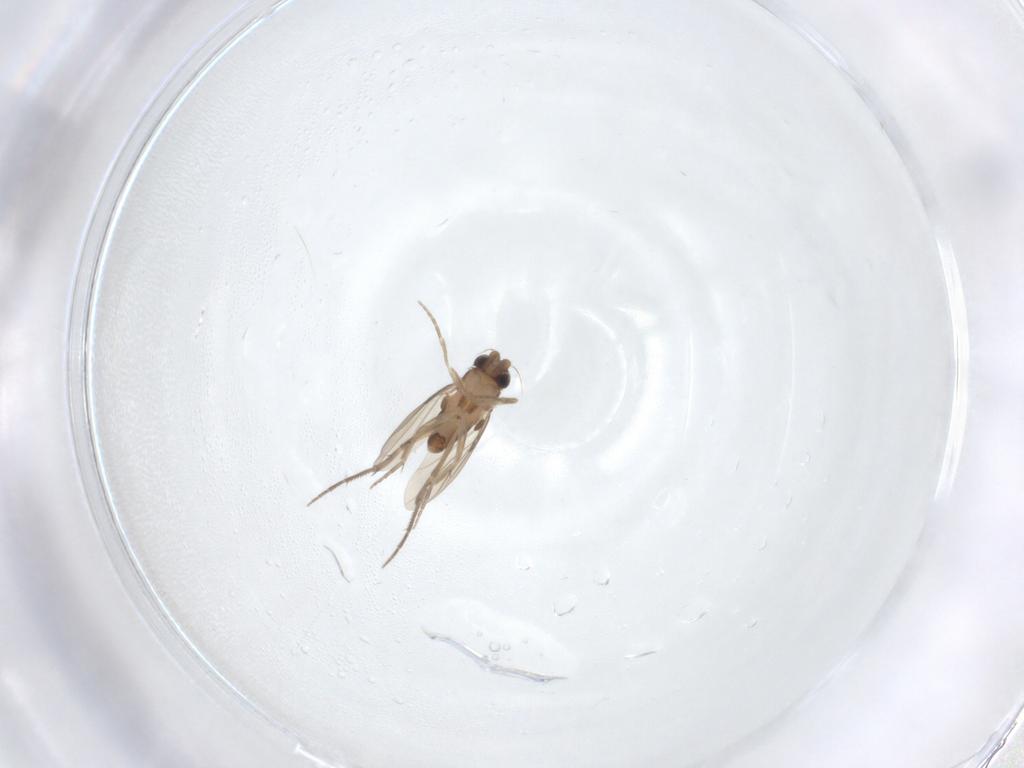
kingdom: Animalia
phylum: Arthropoda
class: Insecta
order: Diptera
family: Phoridae
